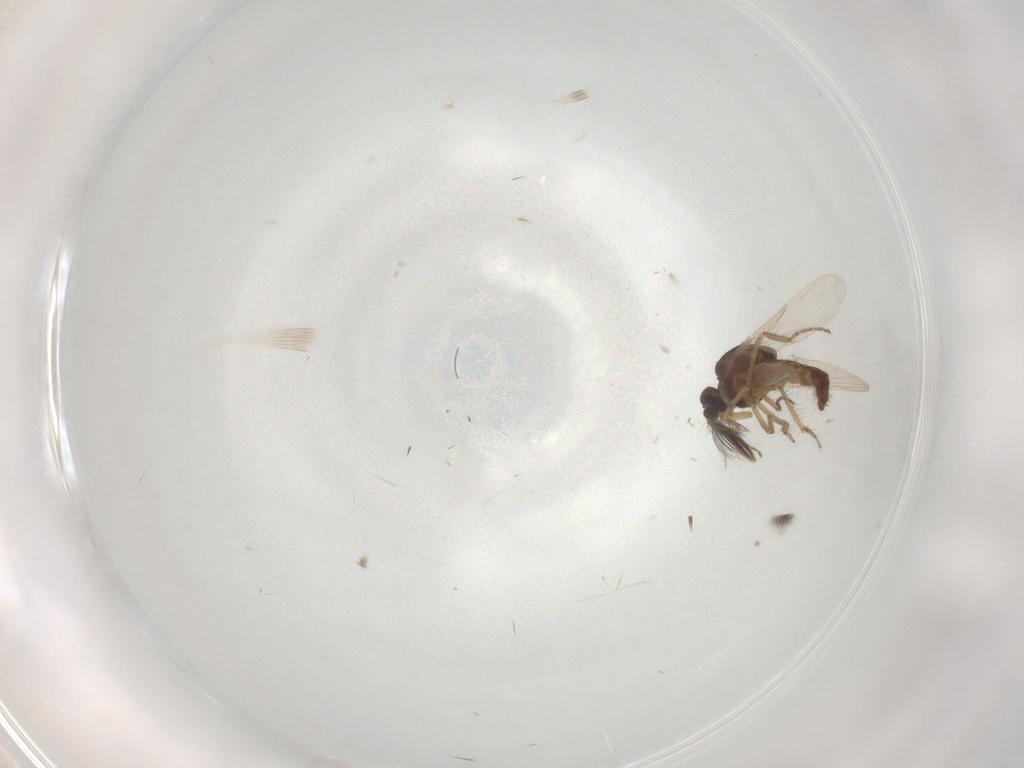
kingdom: Animalia
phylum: Arthropoda
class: Insecta
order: Diptera
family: Ceratopogonidae
